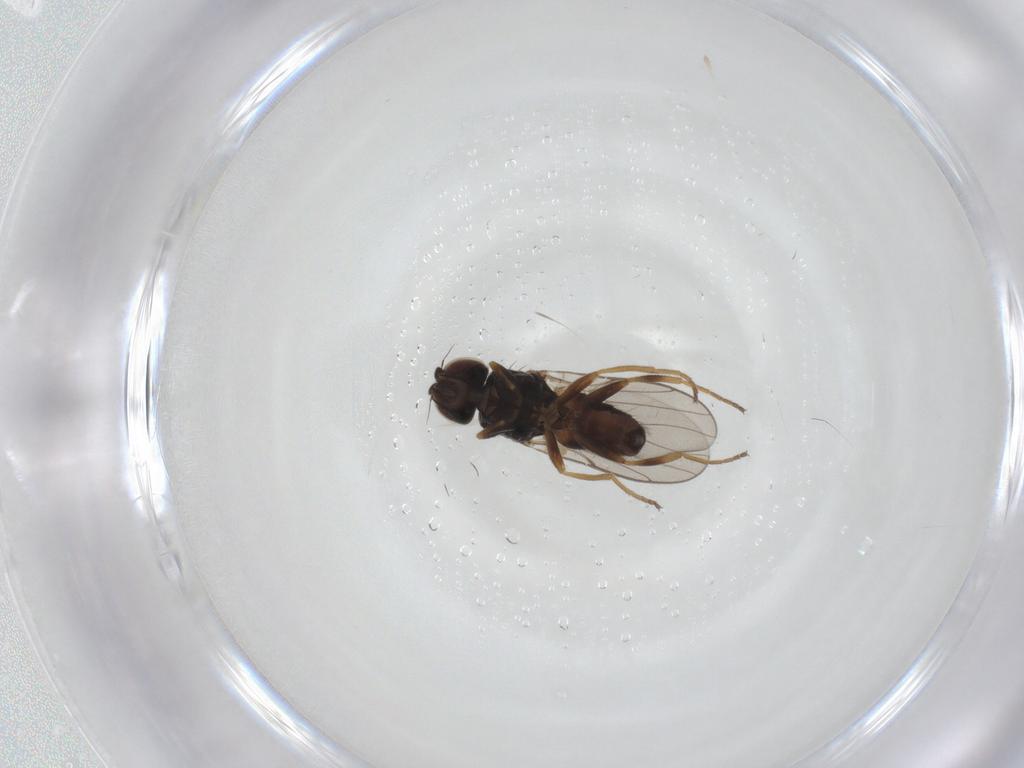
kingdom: Animalia
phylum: Arthropoda
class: Insecta
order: Diptera
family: Chloropidae
